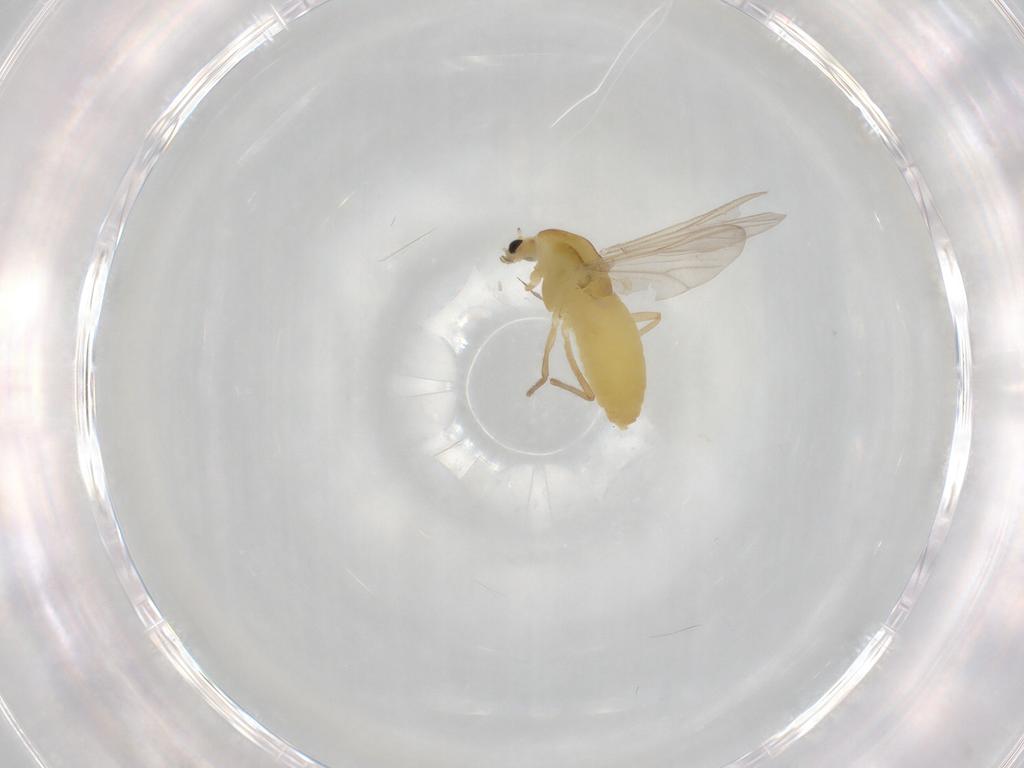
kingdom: Animalia
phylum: Arthropoda
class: Insecta
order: Diptera
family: Chironomidae
